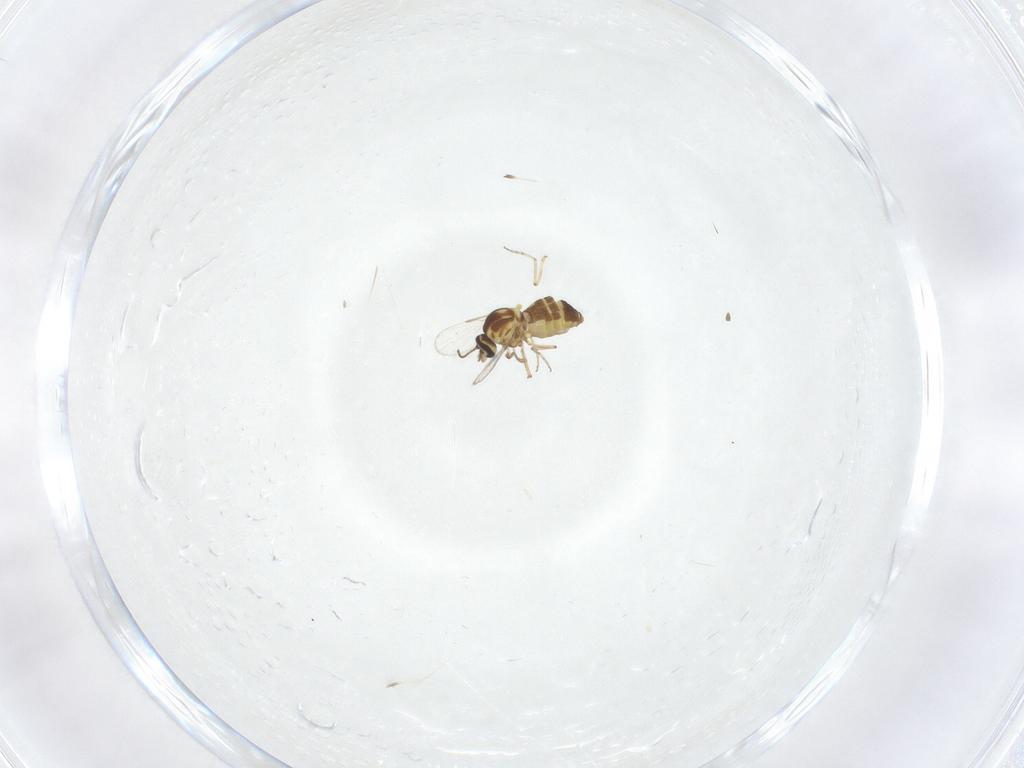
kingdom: Animalia
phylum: Arthropoda
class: Insecta
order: Diptera
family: Ceratopogonidae
